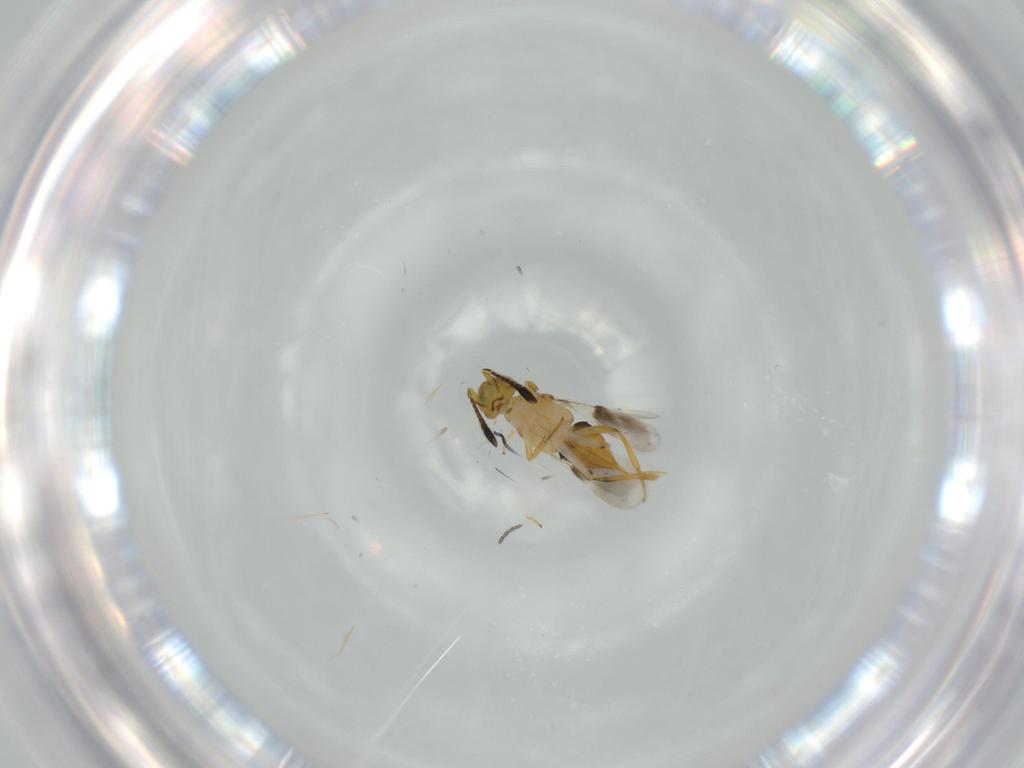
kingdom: Animalia
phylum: Arthropoda
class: Insecta
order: Hymenoptera
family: Encyrtidae
